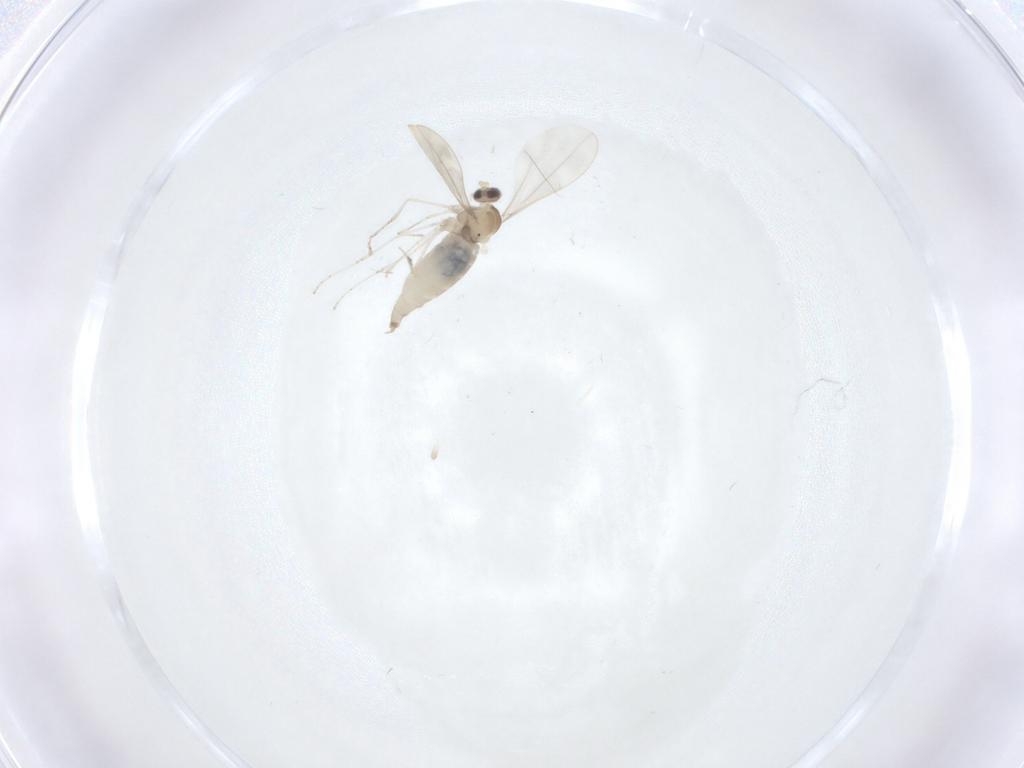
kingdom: Animalia
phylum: Arthropoda
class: Insecta
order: Diptera
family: Cecidomyiidae
